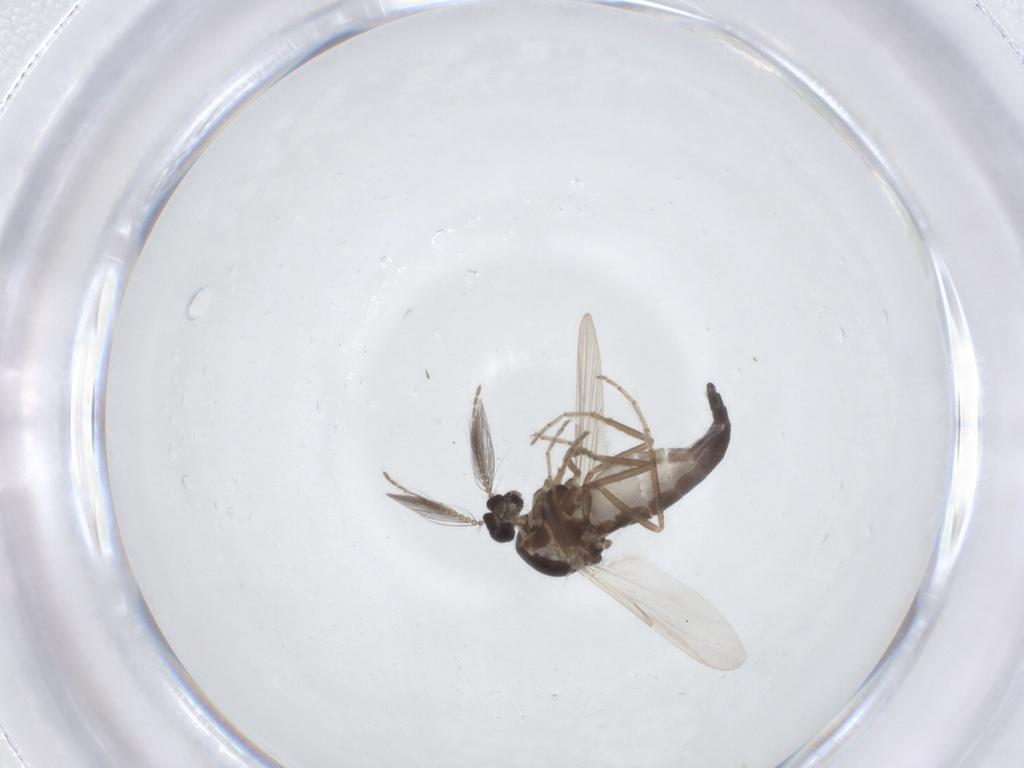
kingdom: Animalia
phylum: Arthropoda
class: Insecta
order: Diptera
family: Ceratopogonidae
